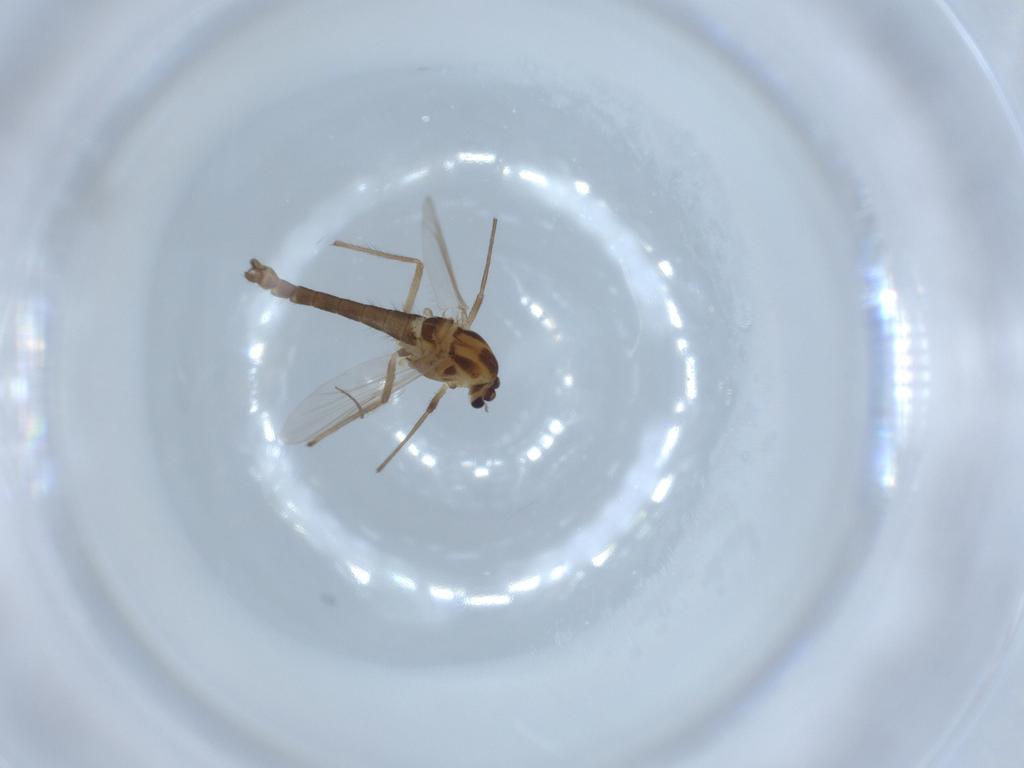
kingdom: Animalia
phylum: Arthropoda
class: Insecta
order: Diptera
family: Chironomidae
